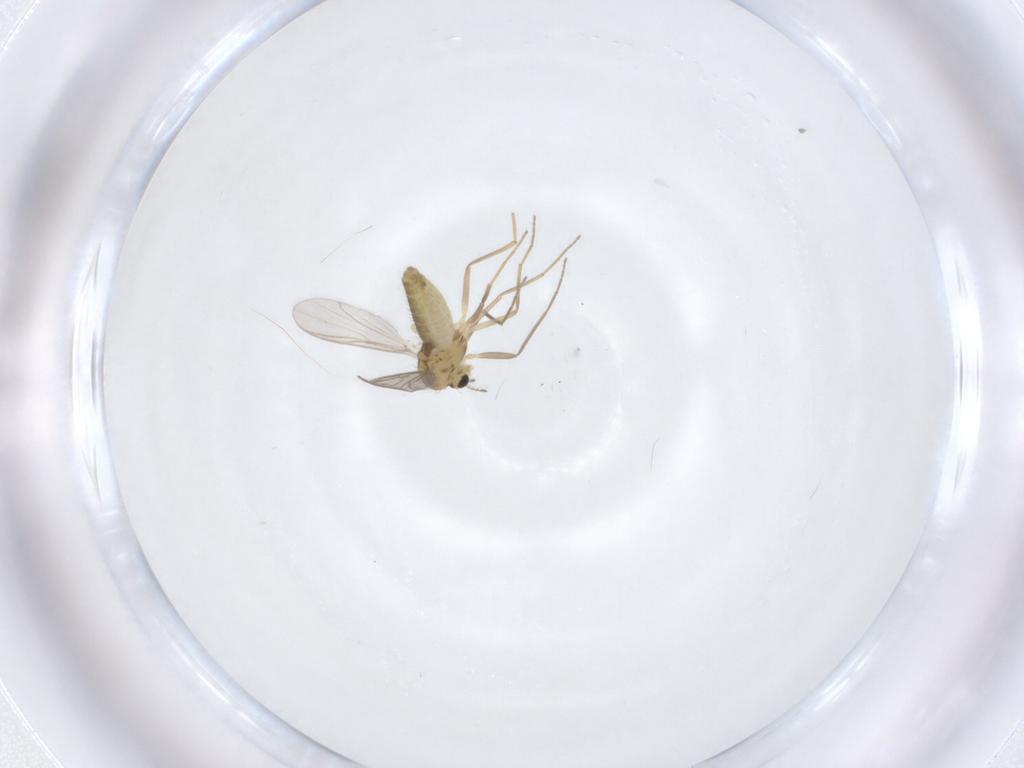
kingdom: Animalia
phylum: Arthropoda
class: Insecta
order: Diptera
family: Chironomidae
